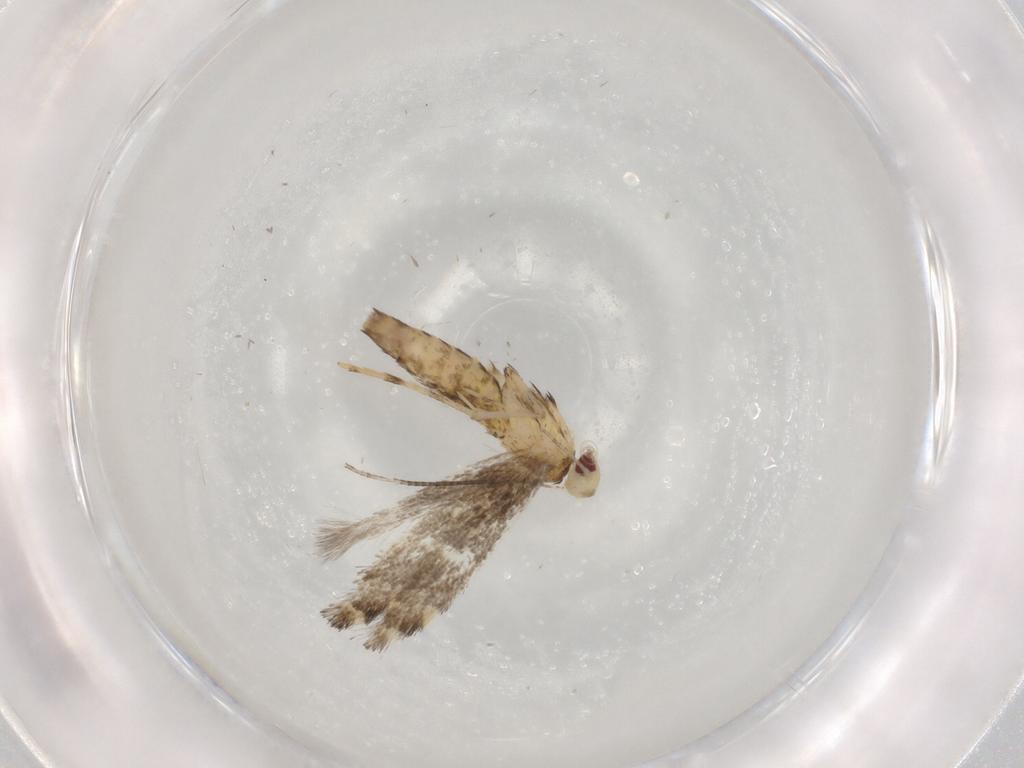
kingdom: Animalia
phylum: Arthropoda
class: Insecta
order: Lepidoptera
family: Gracillariidae
